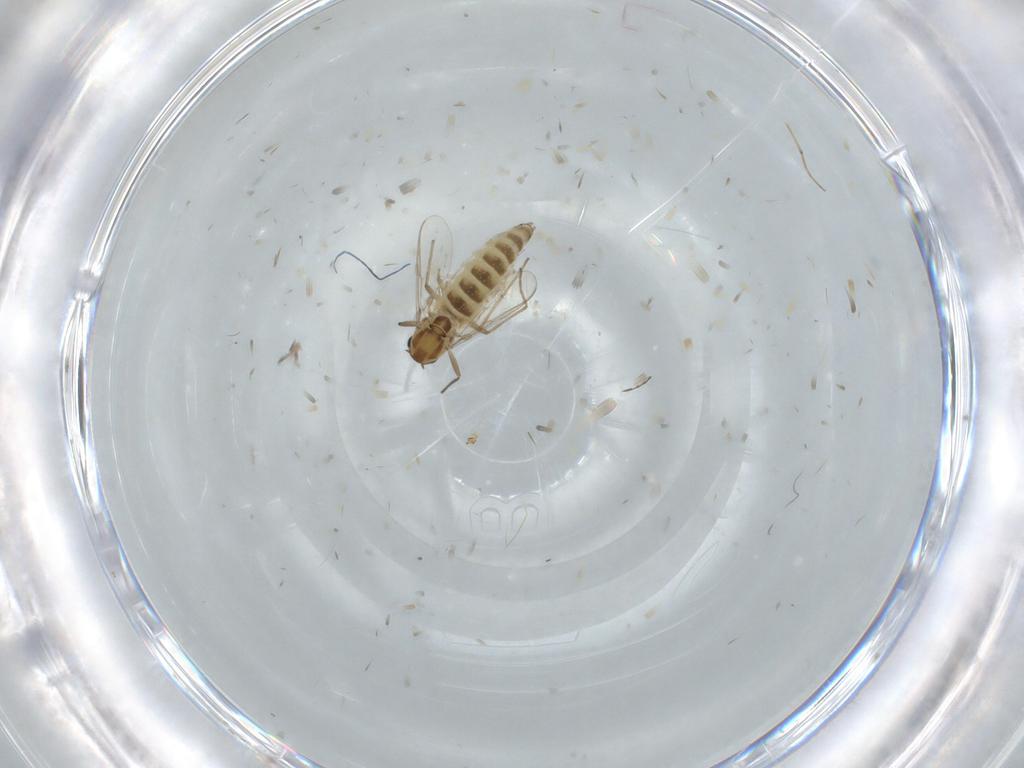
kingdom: Animalia
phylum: Arthropoda
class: Insecta
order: Diptera
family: Chironomidae
